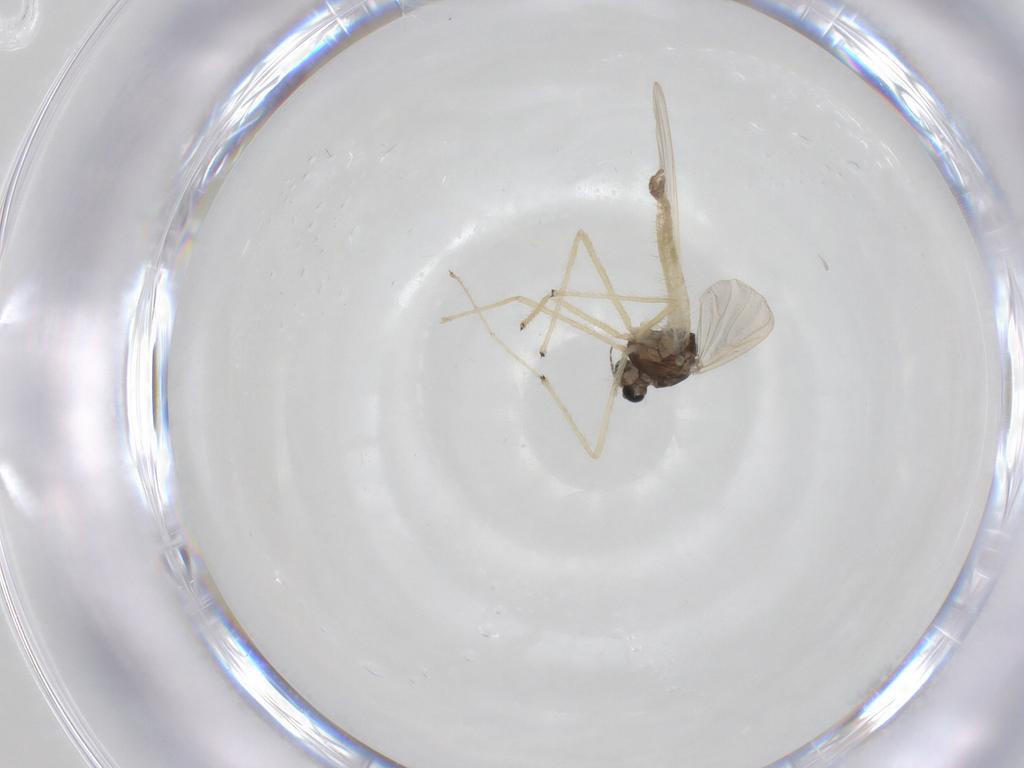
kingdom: Animalia
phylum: Arthropoda
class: Insecta
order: Diptera
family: Chironomidae
